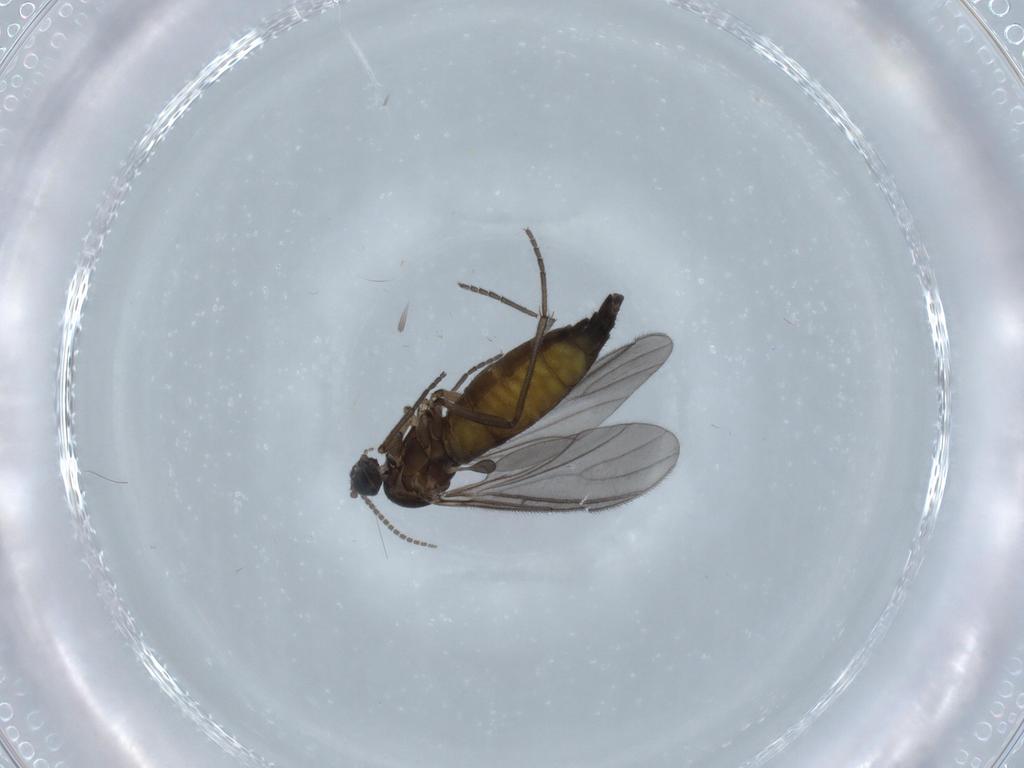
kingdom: Animalia
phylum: Arthropoda
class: Insecta
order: Diptera
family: Sciaridae
